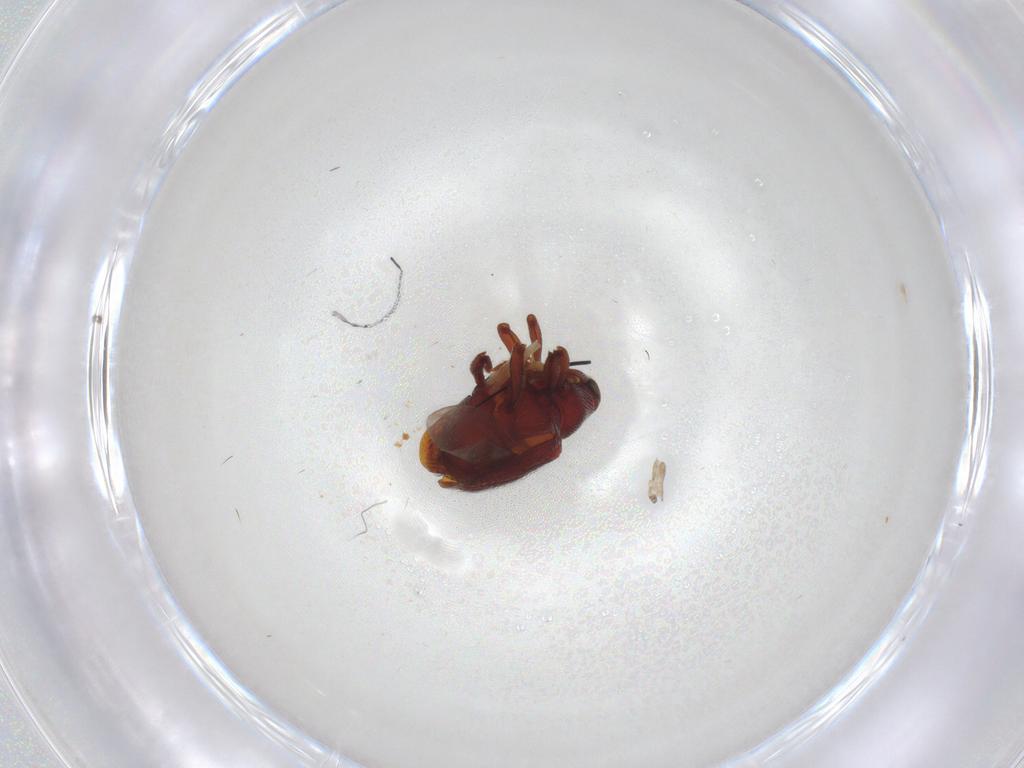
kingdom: Animalia
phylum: Arthropoda
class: Insecta
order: Coleoptera
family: Curculionidae
